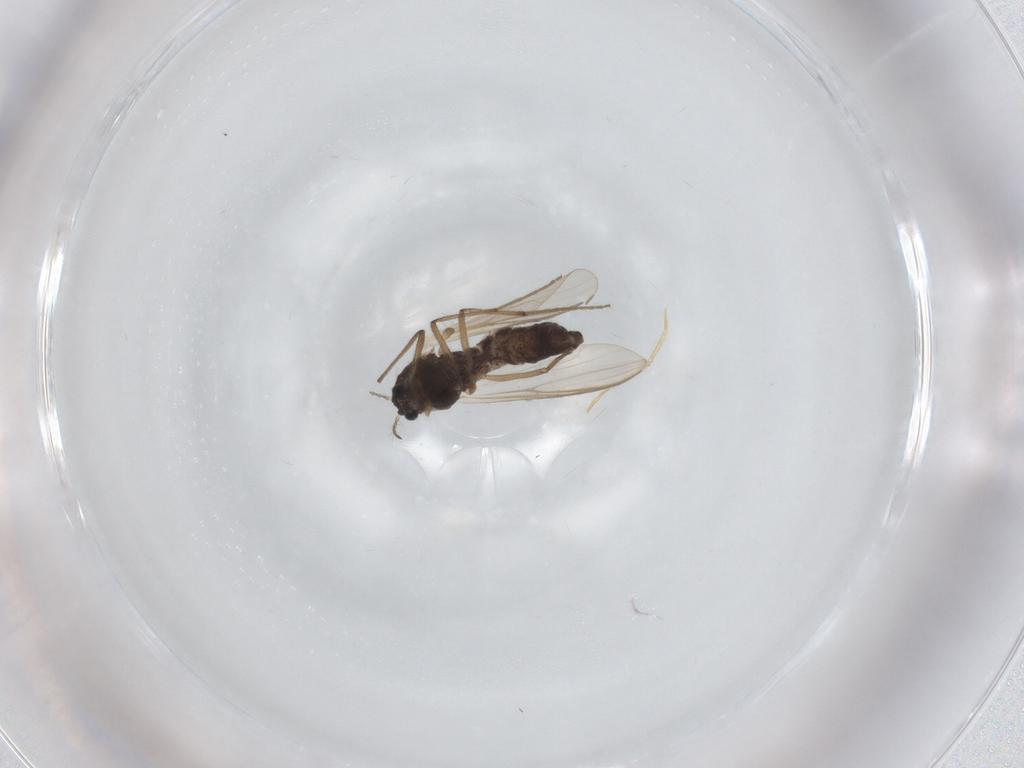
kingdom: Animalia
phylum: Arthropoda
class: Insecta
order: Diptera
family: Chironomidae
